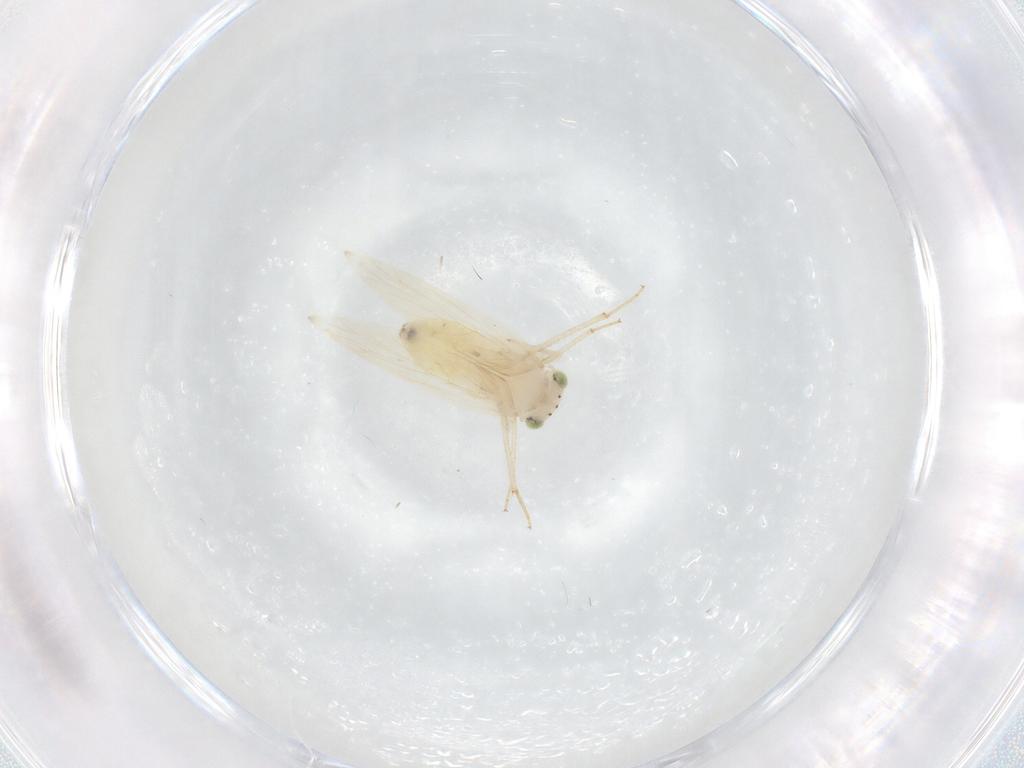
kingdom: Animalia
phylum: Arthropoda
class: Insecta
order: Psocodea
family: Lepidopsocidae
